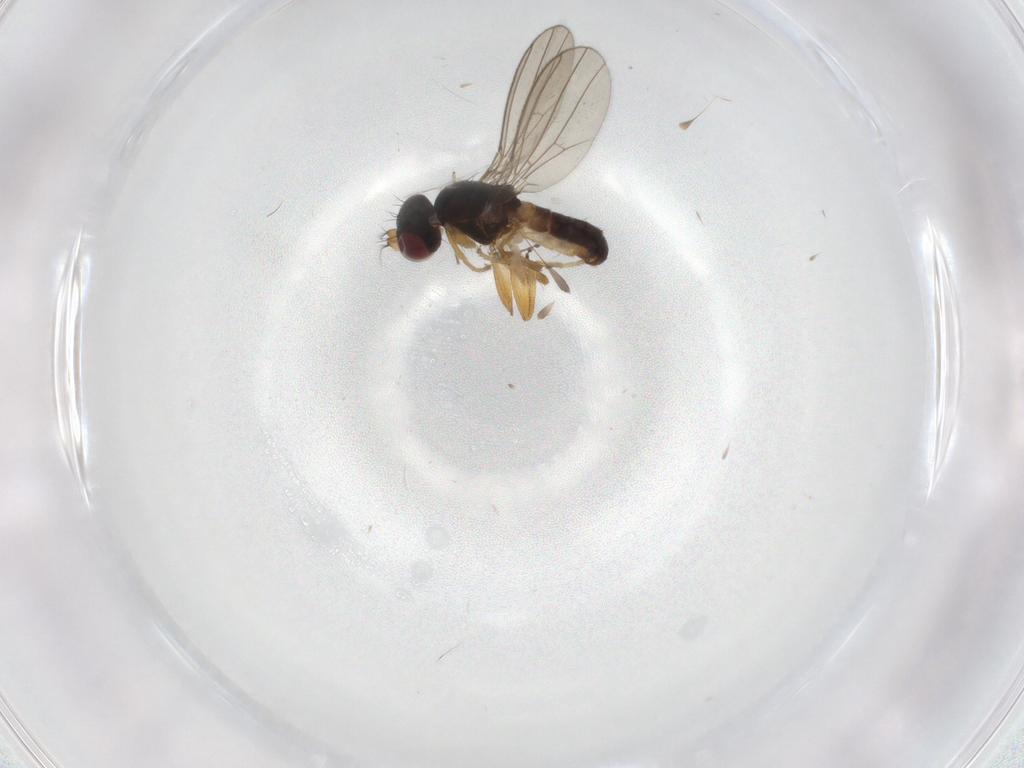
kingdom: Animalia
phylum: Arthropoda
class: Insecta
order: Diptera
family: Anthomyzidae
